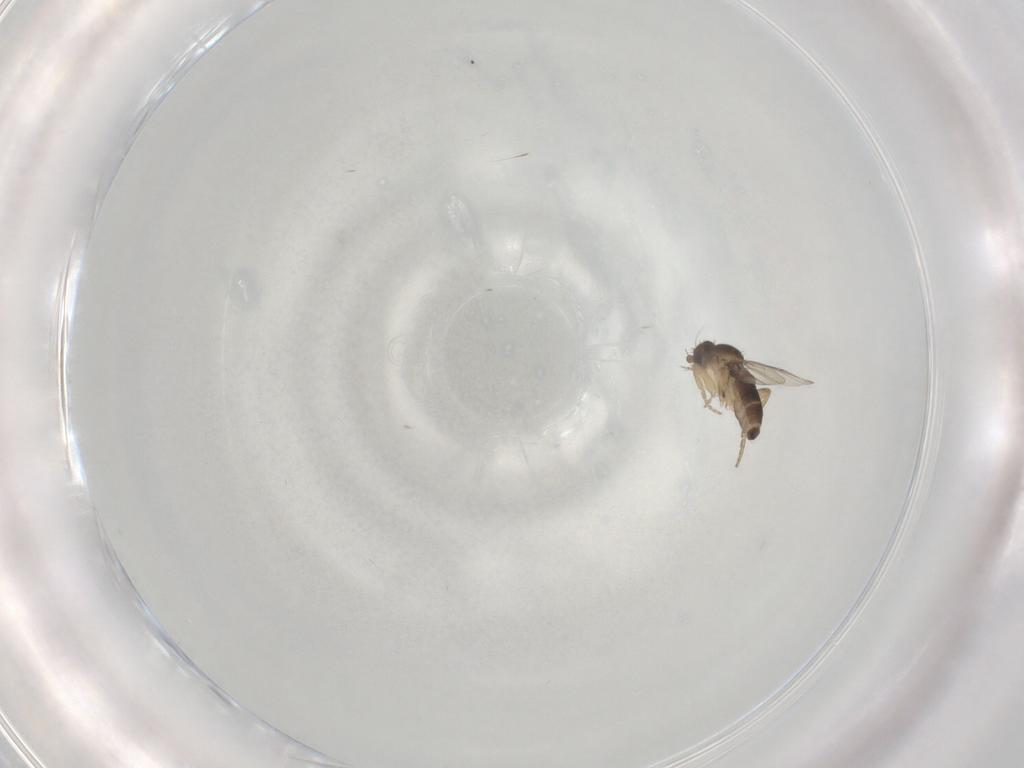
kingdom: Animalia
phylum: Arthropoda
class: Insecta
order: Diptera
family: Phoridae
